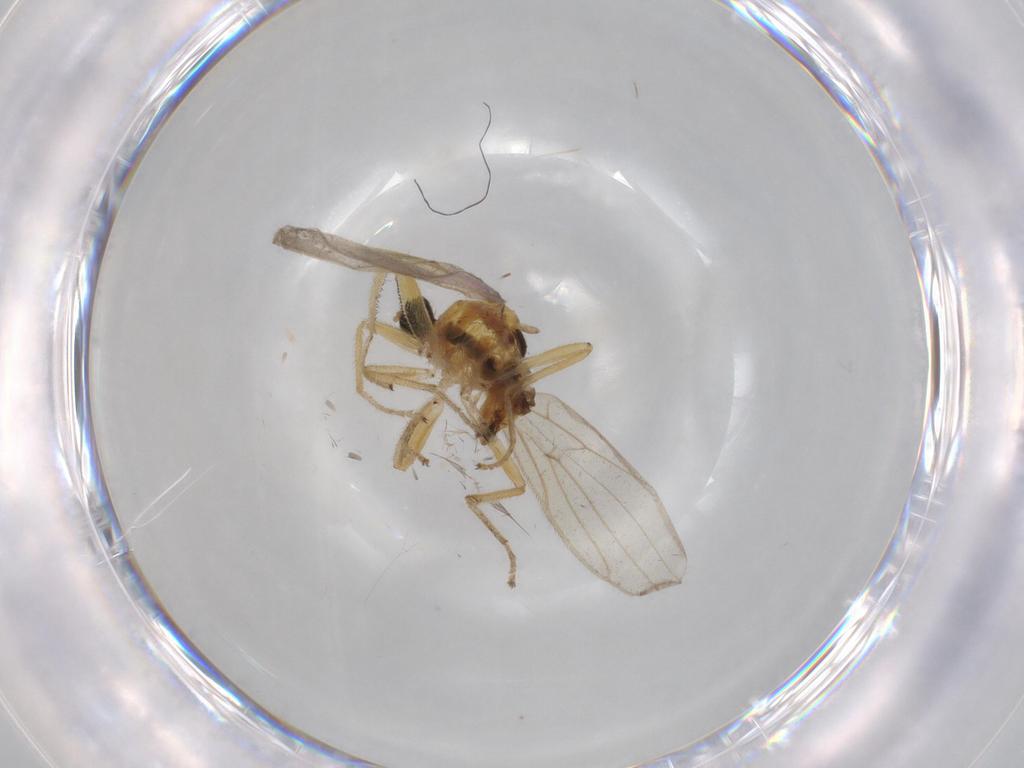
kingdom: Animalia
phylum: Arthropoda
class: Insecta
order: Diptera
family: Hybotidae
